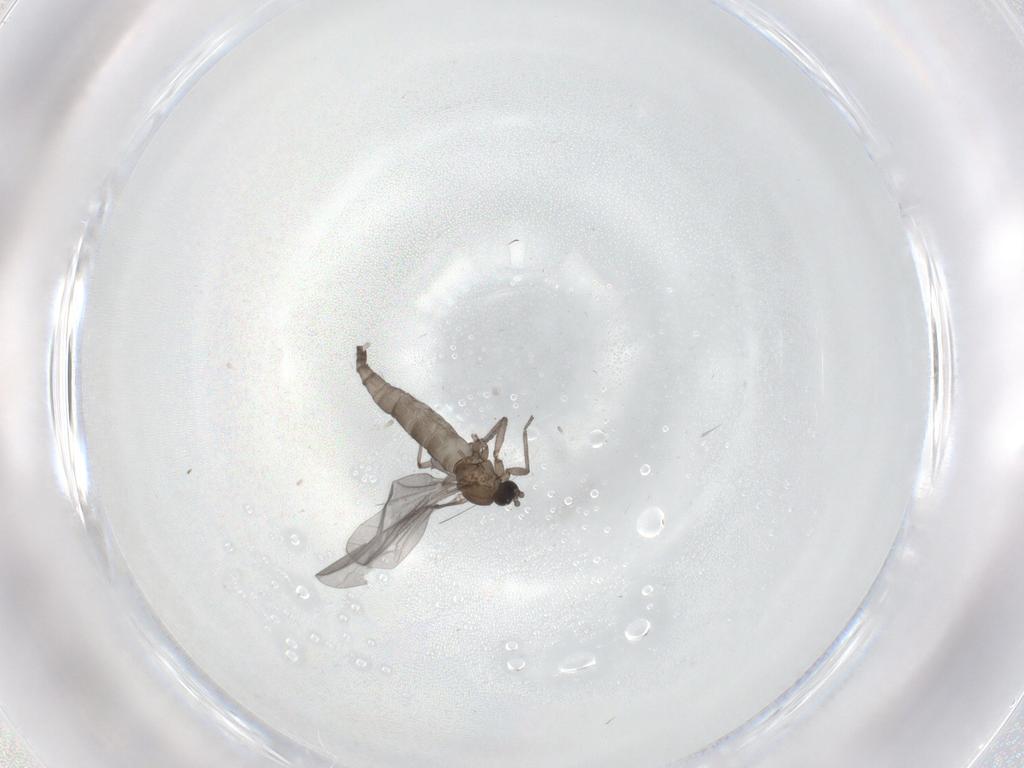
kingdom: Animalia
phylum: Arthropoda
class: Insecta
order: Diptera
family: Sciaridae
